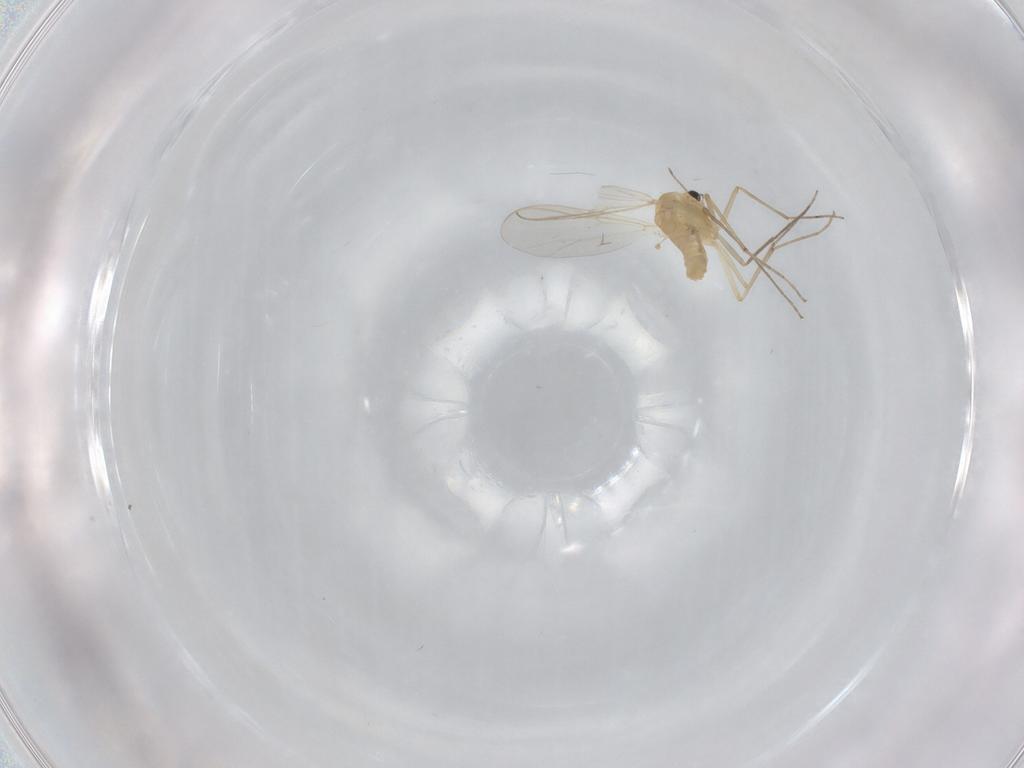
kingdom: Animalia
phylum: Arthropoda
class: Insecta
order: Diptera
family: Chironomidae
